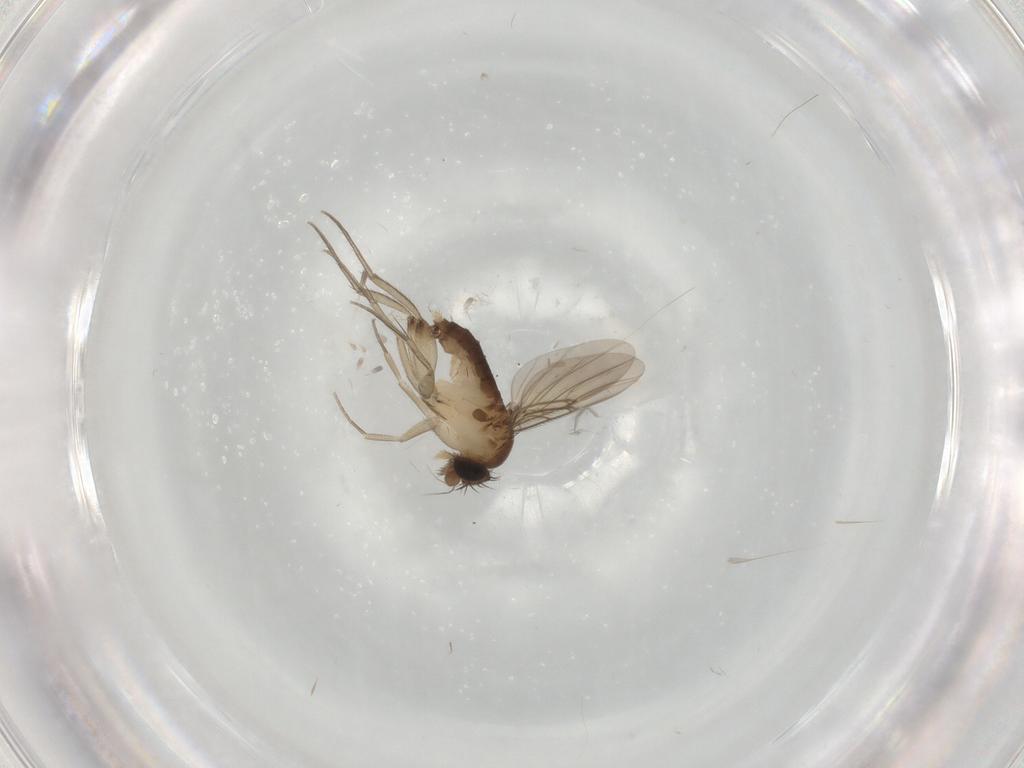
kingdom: Animalia
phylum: Arthropoda
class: Insecta
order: Diptera
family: Phoridae
